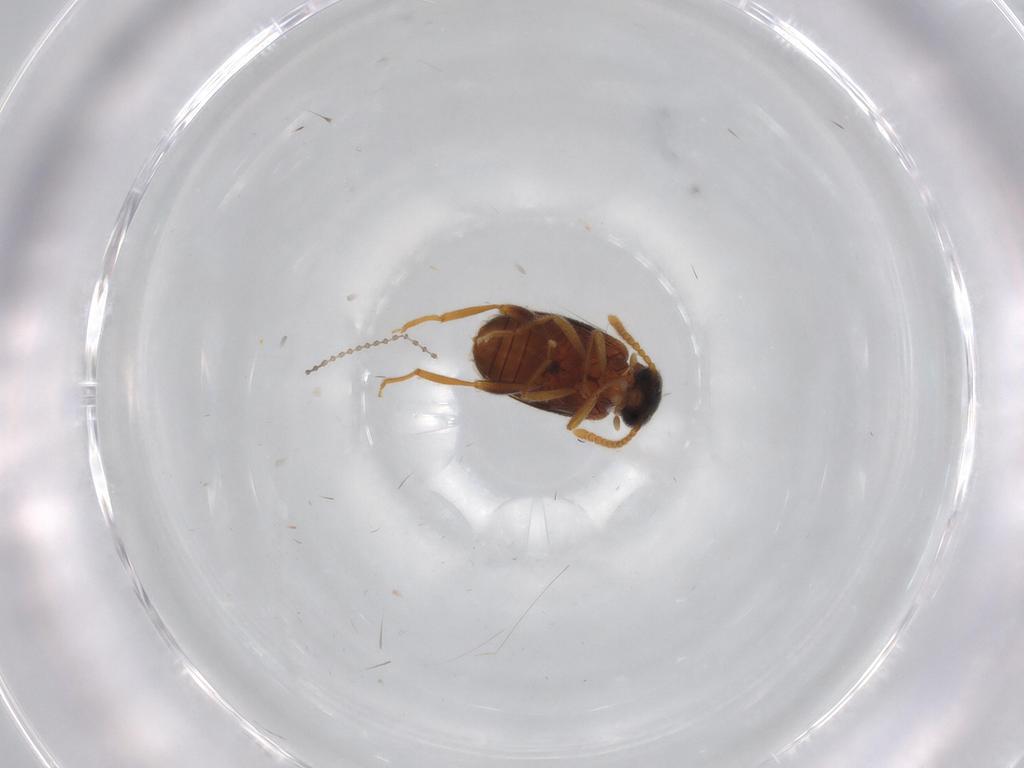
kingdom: Animalia
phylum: Arthropoda
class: Insecta
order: Coleoptera
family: Aderidae
